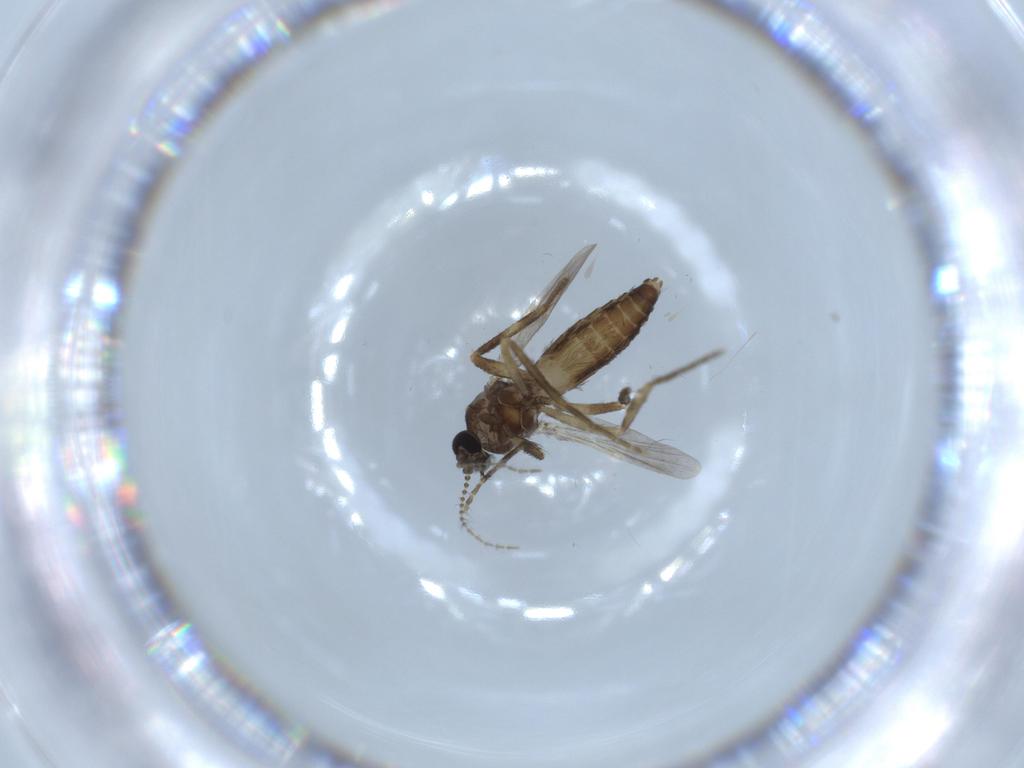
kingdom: Animalia
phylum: Arthropoda
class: Insecta
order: Diptera
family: Ceratopogonidae
